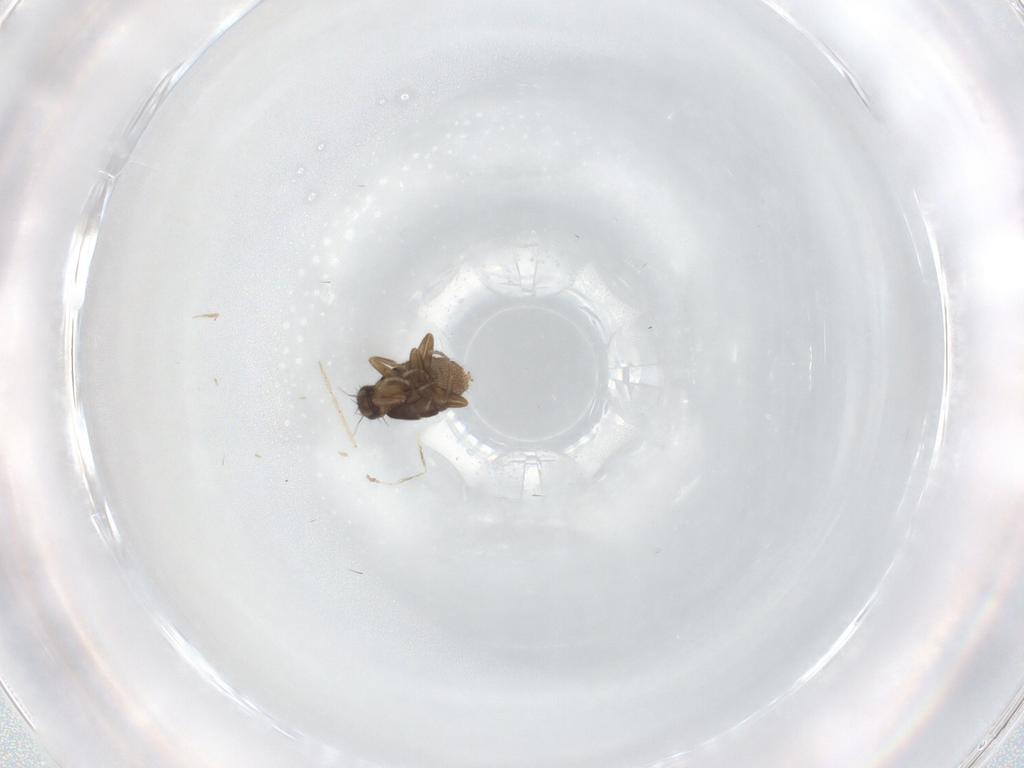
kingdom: Animalia
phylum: Arthropoda
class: Insecta
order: Diptera
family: Phoridae
